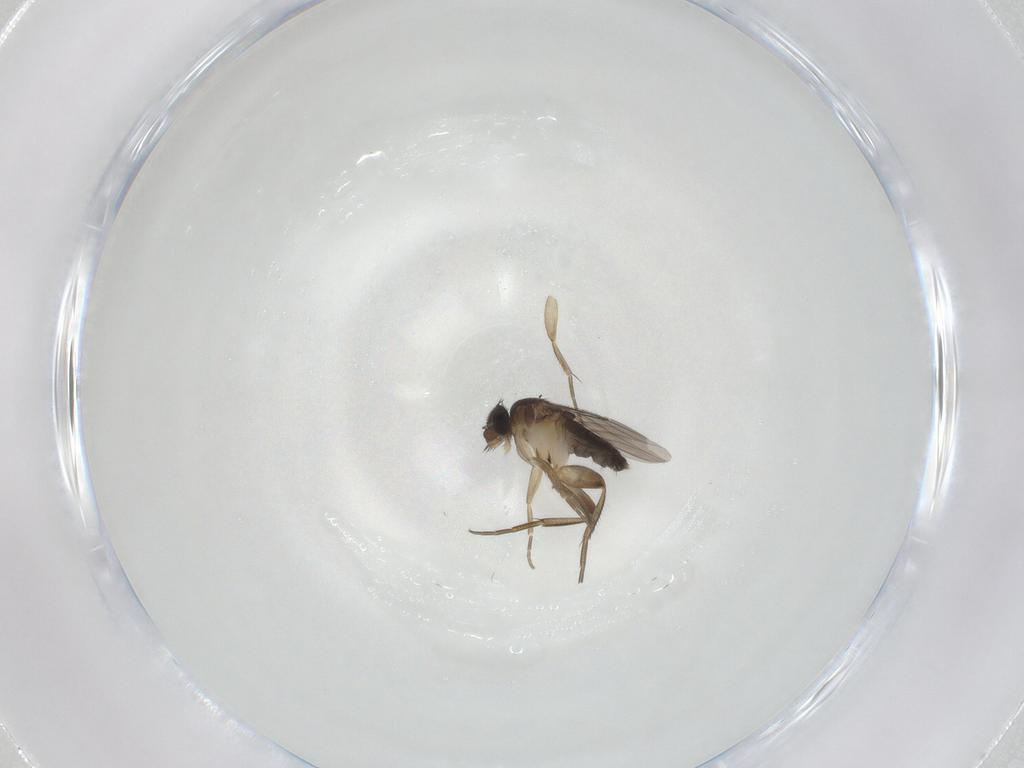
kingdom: Animalia
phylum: Arthropoda
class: Insecta
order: Diptera
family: Phoridae
